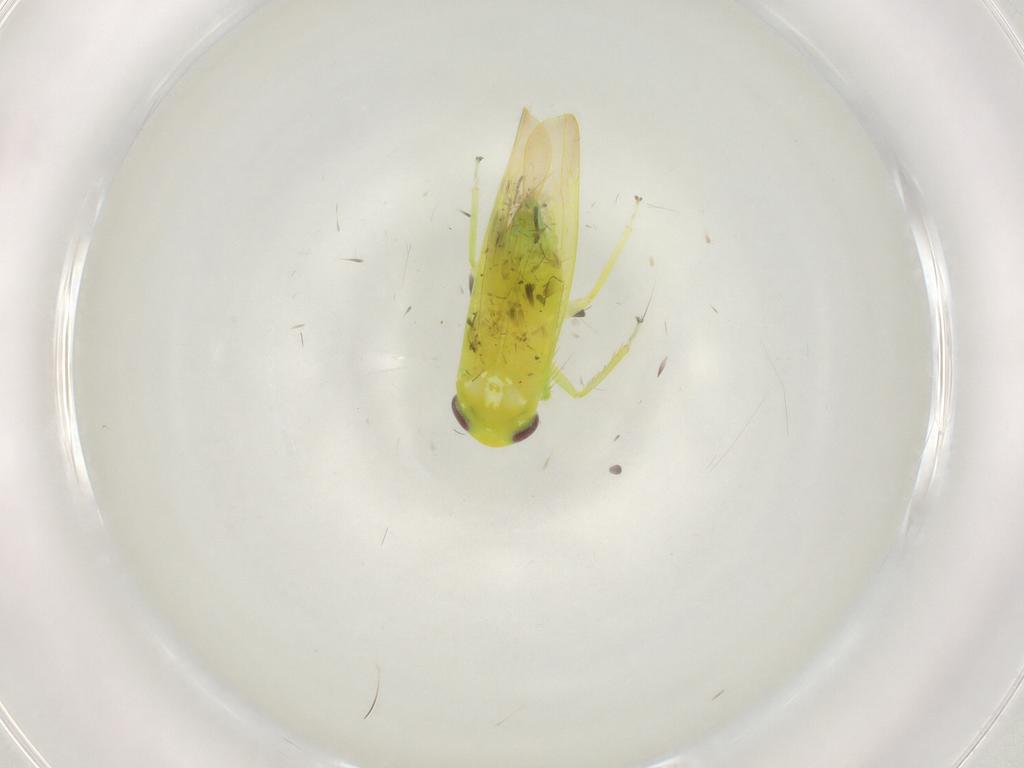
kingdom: Animalia
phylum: Arthropoda
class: Insecta
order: Hemiptera
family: Cicadellidae
